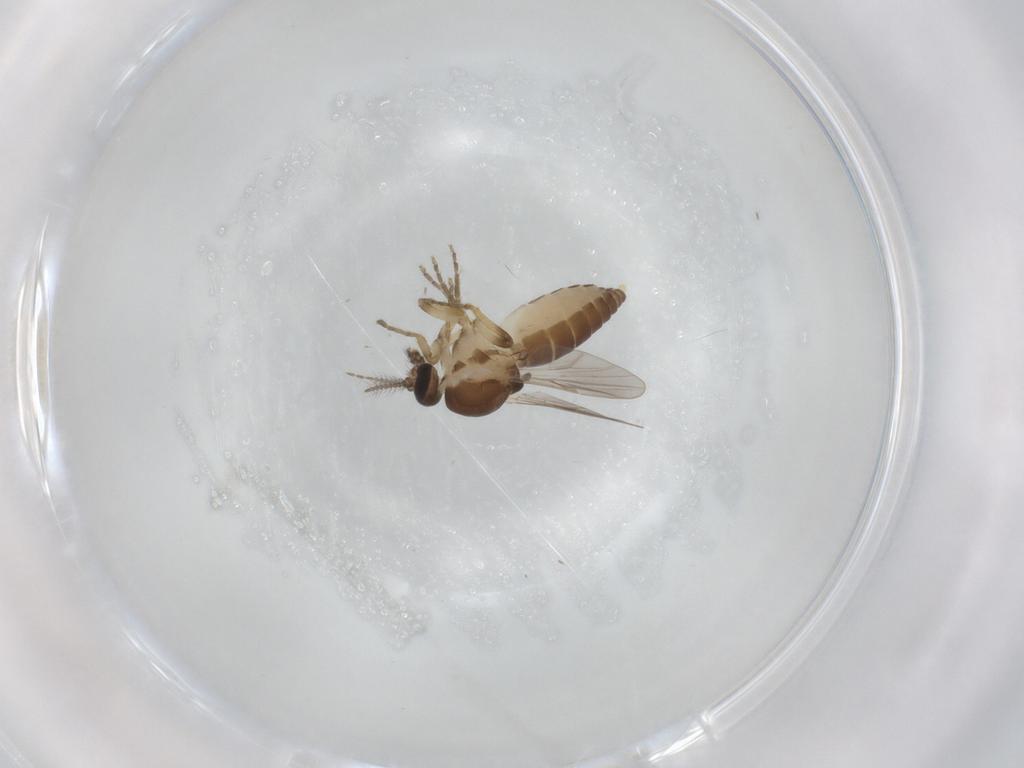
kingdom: Animalia
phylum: Arthropoda
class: Insecta
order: Diptera
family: Ceratopogonidae
